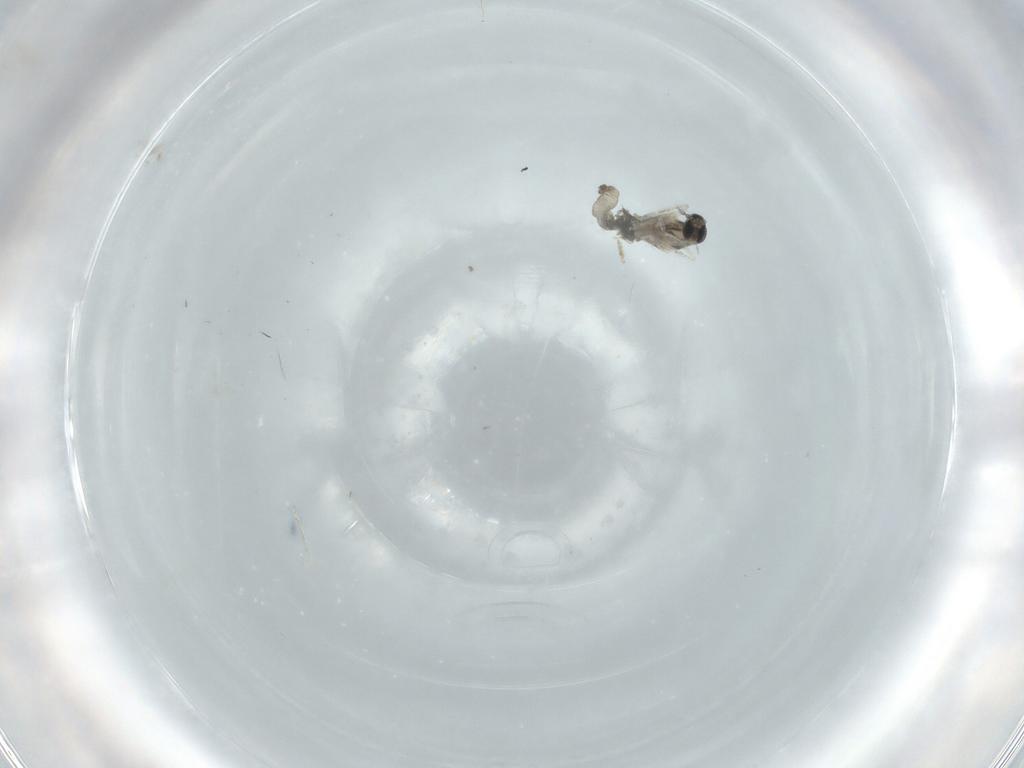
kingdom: Animalia
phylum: Arthropoda
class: Insecta
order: Diptera
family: Cecidomyiidae
